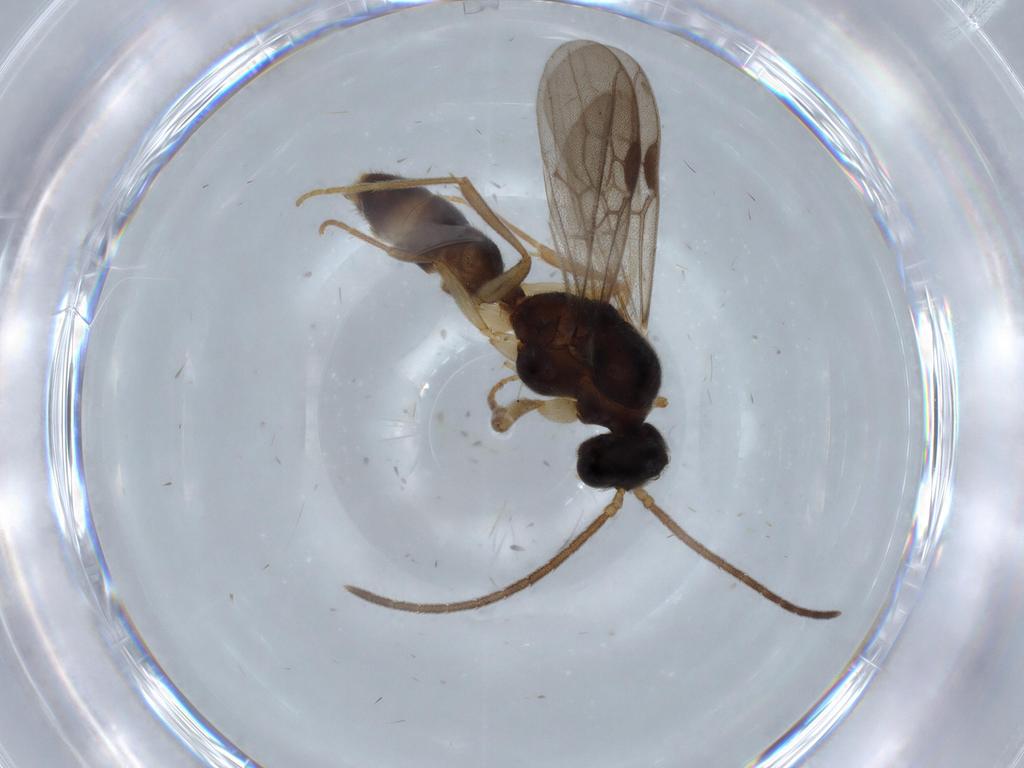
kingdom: Animalia
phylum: Arthropoda
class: Insecta
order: Hymenoptera
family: Formicidae
